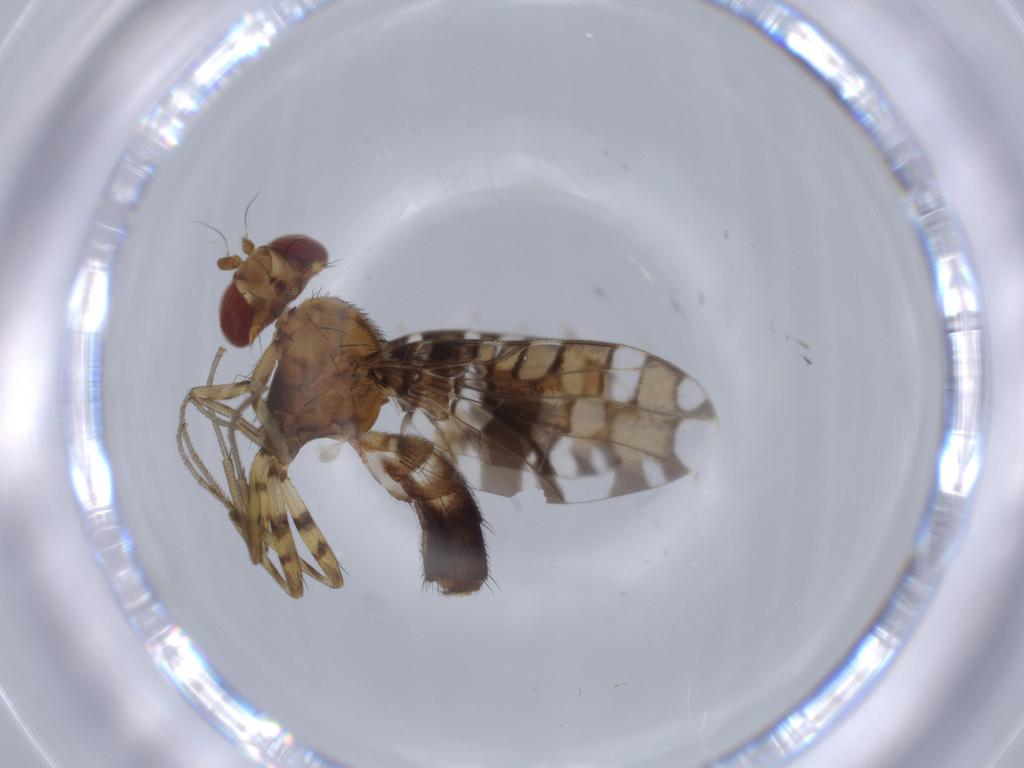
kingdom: Animalia
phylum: Arthropoda
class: Insecta
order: Diptera
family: Ulidiidae
